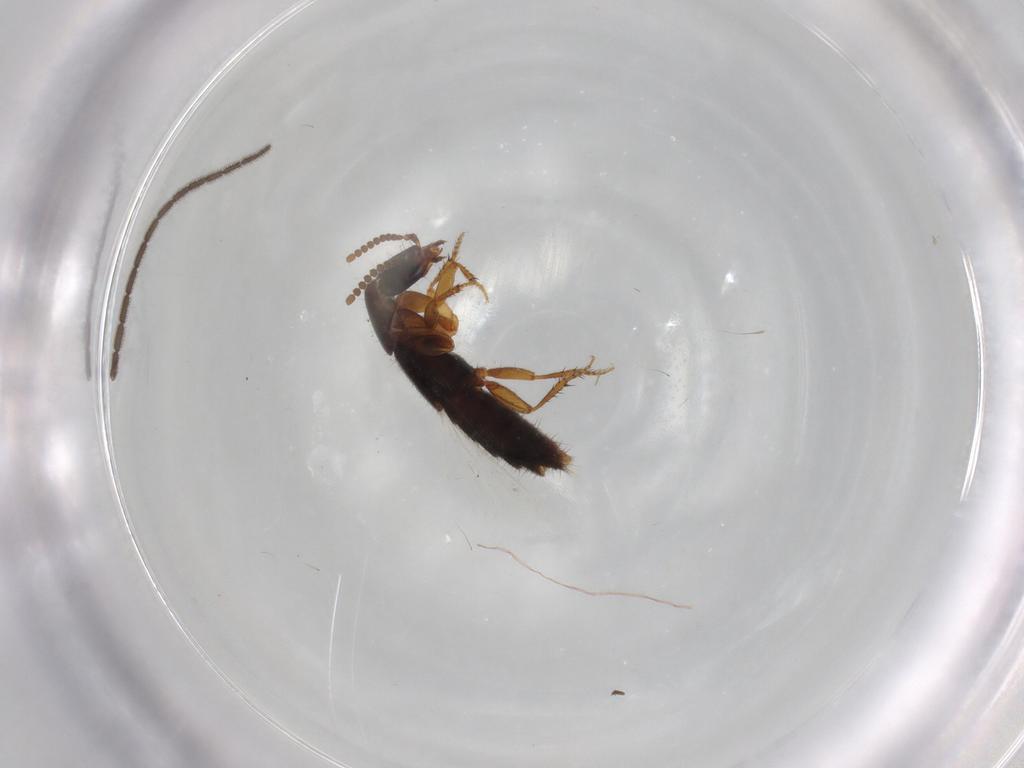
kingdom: Animalia
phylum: Arthropoda
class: Insecta
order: Coleoptera
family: Staphylinidae
